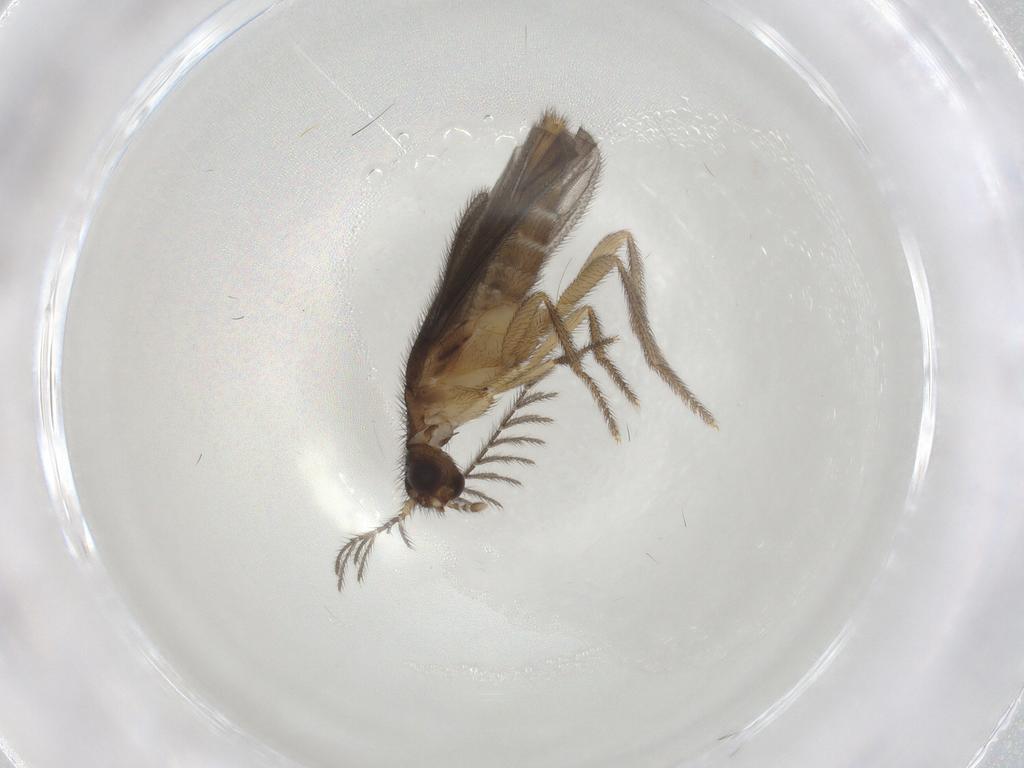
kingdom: Animalia
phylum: Arthropoda
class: Insecta
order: Coleoptera
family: Phengodidae
